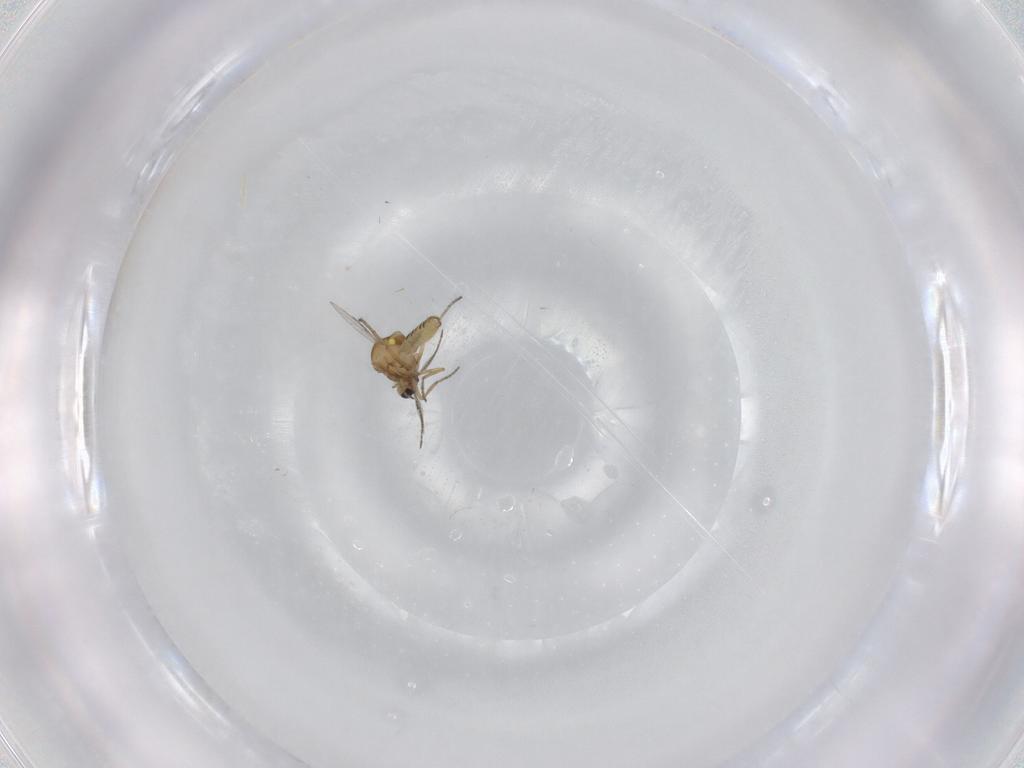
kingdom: Animalia
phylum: Arthropoda
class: Insecta
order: Diptera
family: Ceratopogonidae
